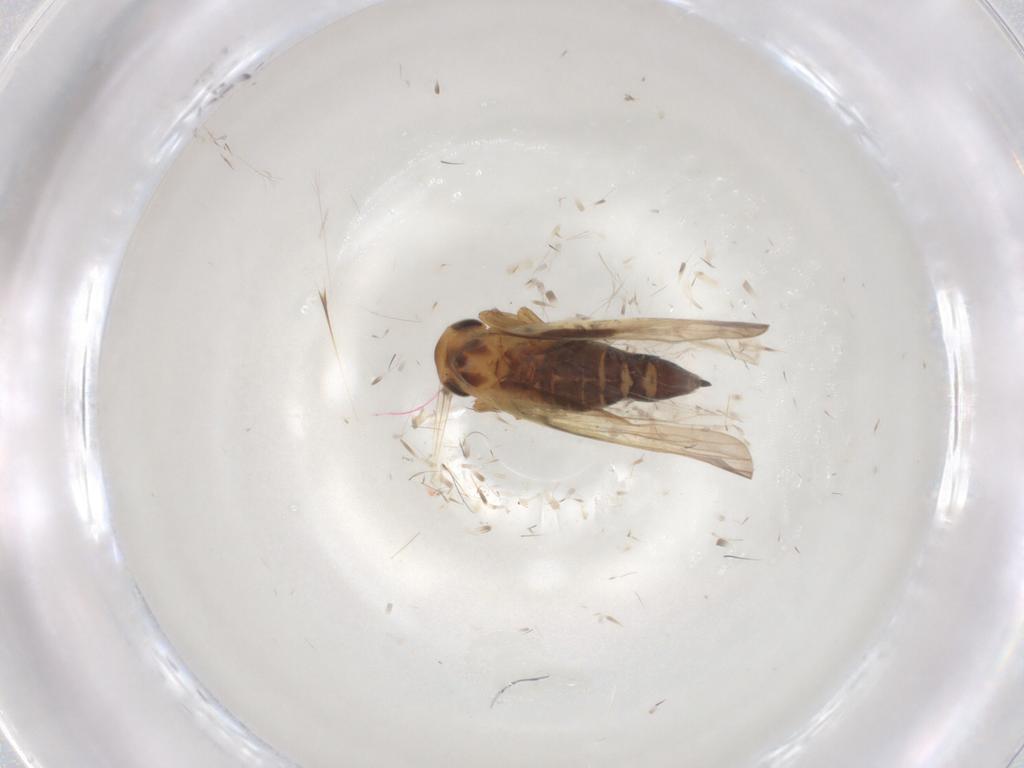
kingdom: Animalia
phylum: Arthropoda
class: Insecta
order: Hemiptera
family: Cicadellidae
